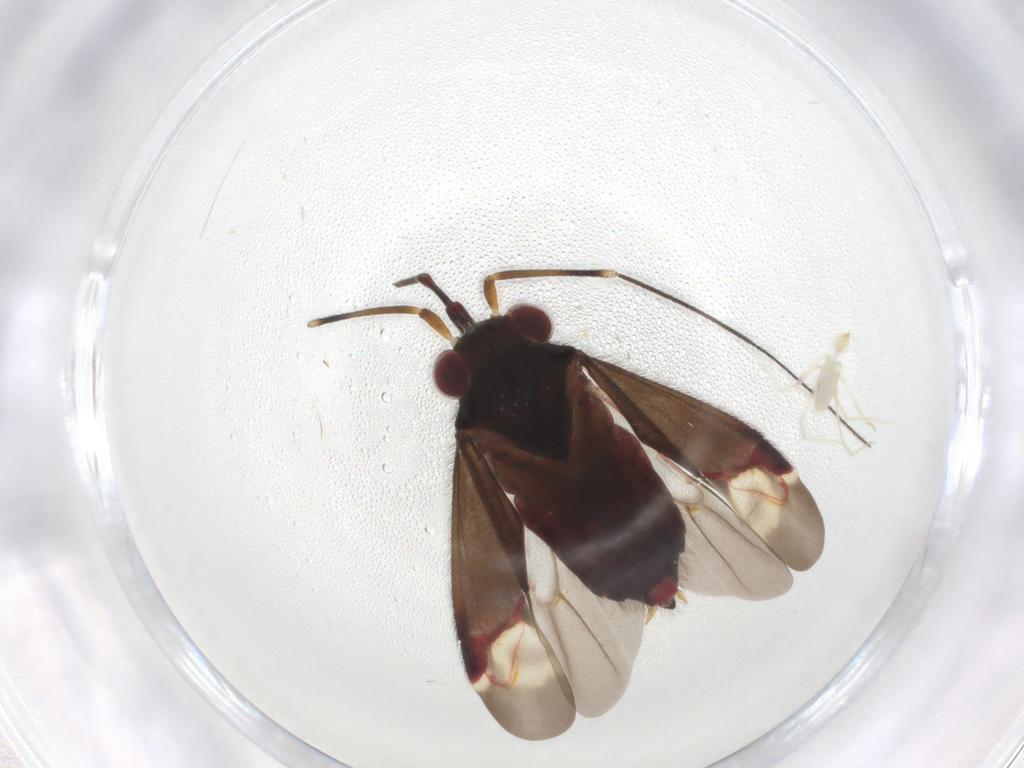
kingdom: Animalia
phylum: Arthropoda
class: Insecta
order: Hemiptera
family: Miridae
